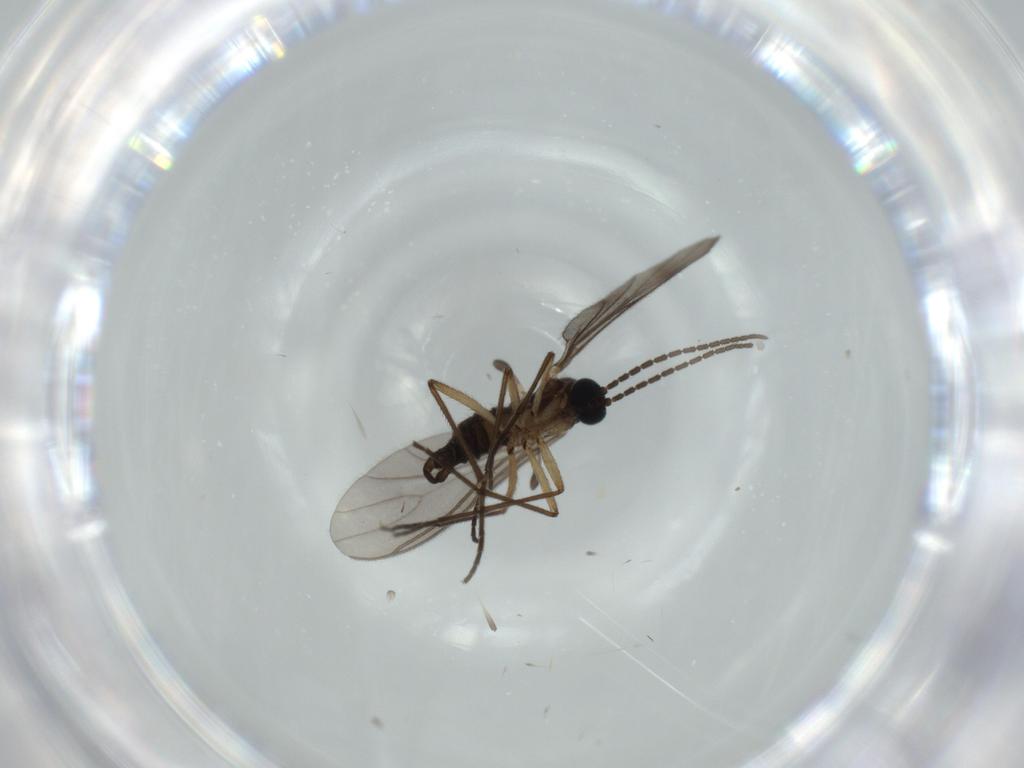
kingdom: Animalia
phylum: Arthropoda
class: Insecta
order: Diptera
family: Sciaridae
